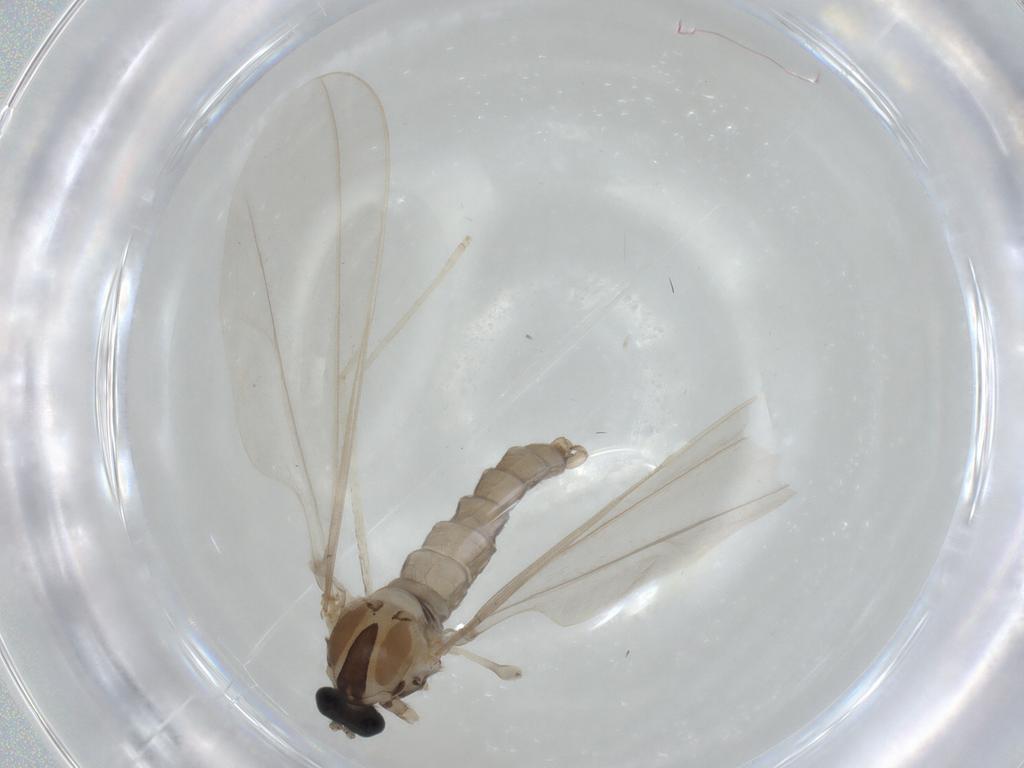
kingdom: Animalia
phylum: Arthropoda
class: Insecta
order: Diptera
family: Cecidomyiidae
